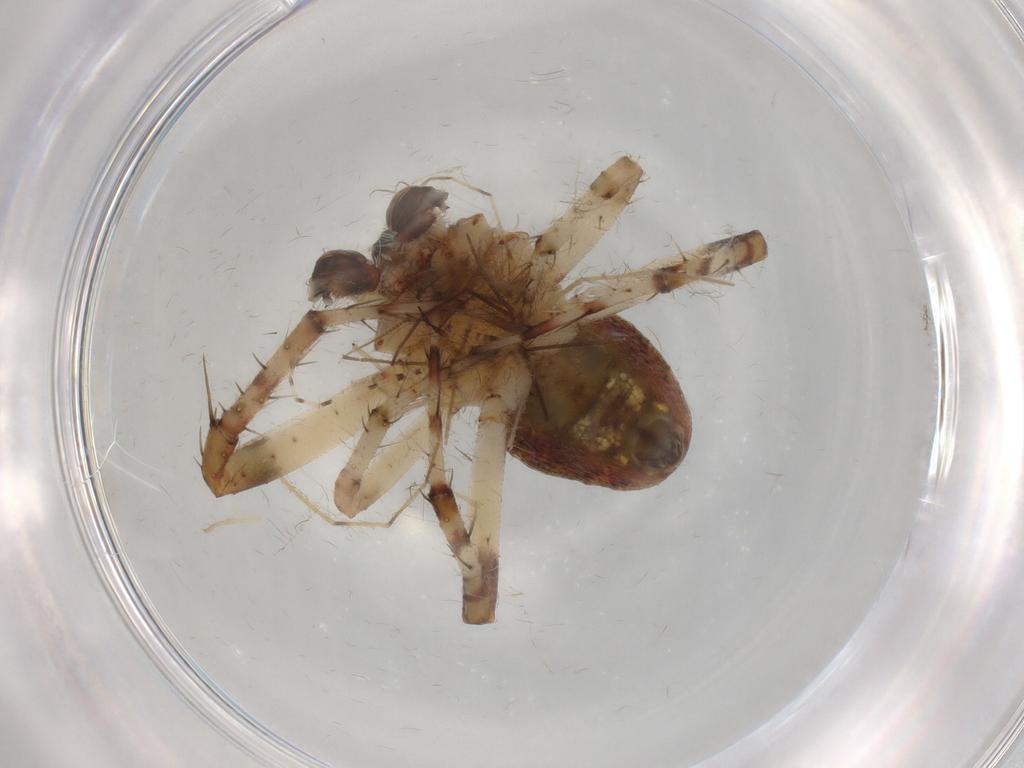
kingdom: Animalia
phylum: Arthropoda
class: Arachnida
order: Araneae
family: Araneidae
